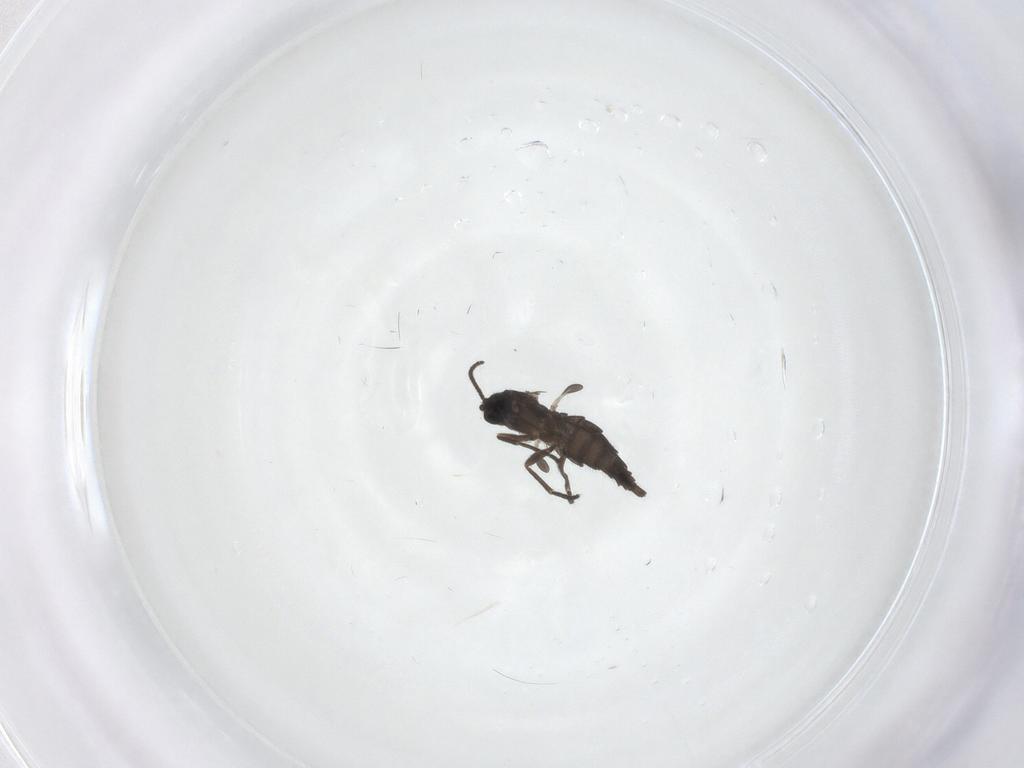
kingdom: Animalia
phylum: Arthropoda
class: Insecta
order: Diptera
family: Sciaridae
